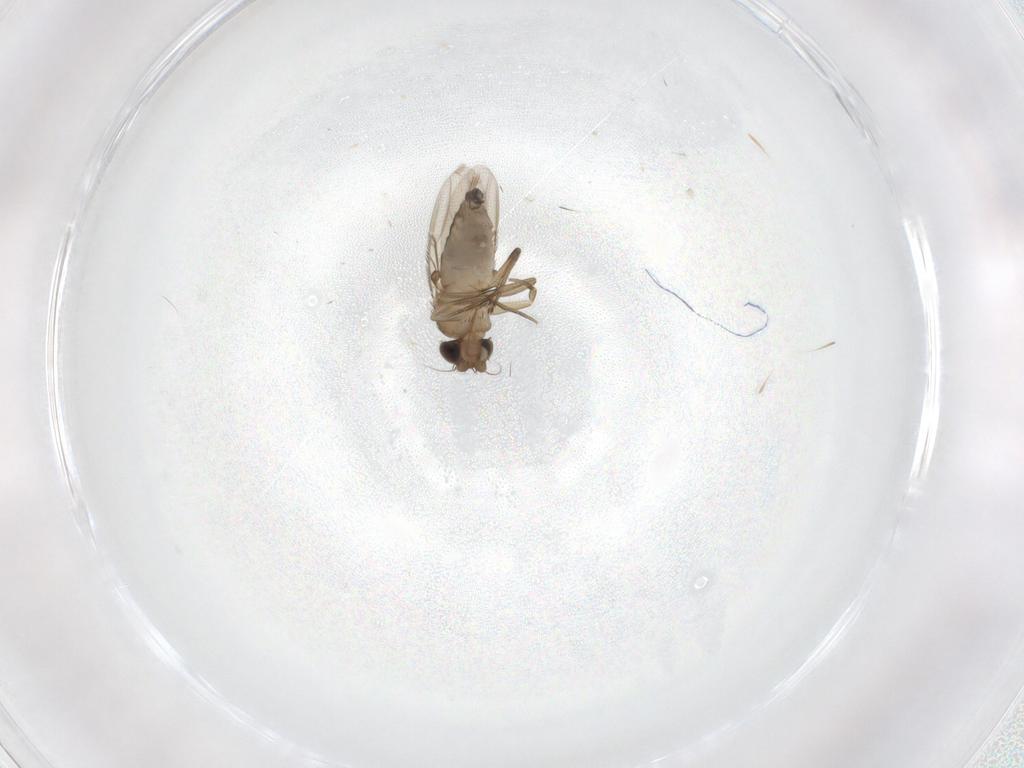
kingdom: Animalia
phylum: Arthropoda
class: Insecta
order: Diptera
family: Phoridae
